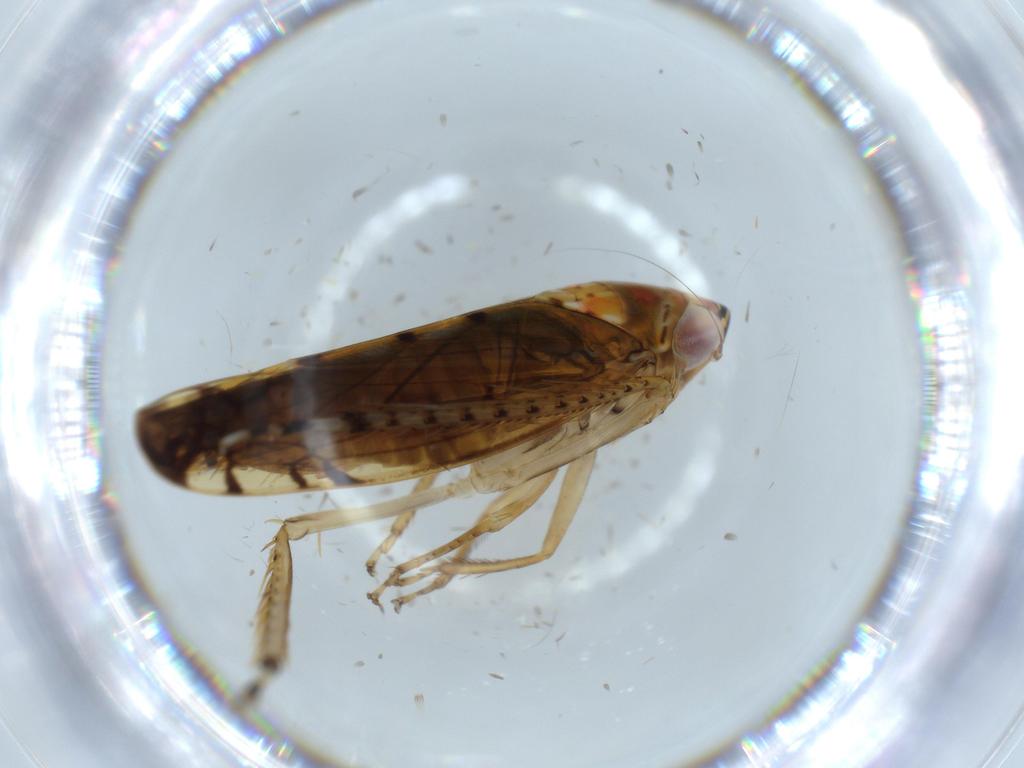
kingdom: Animalia
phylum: Arthropoda
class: Insecta
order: Hemiptera
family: Cicadellidae
